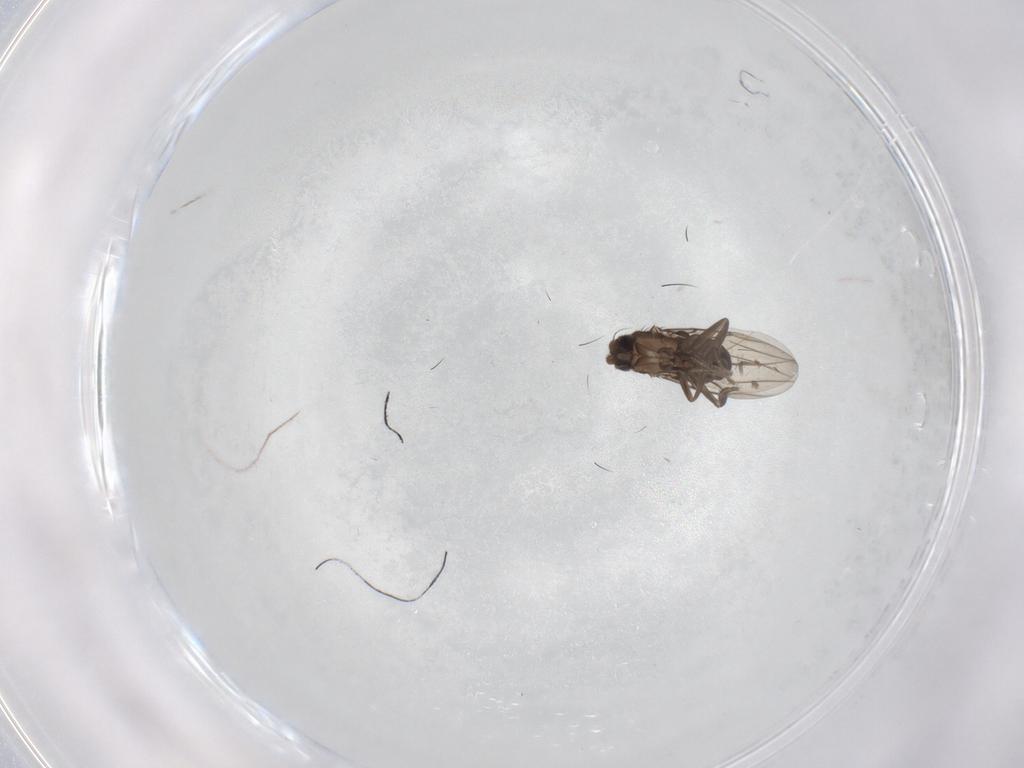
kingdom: Animalia
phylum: Arthropoda
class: Insecta
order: Diptera
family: Phoridae
